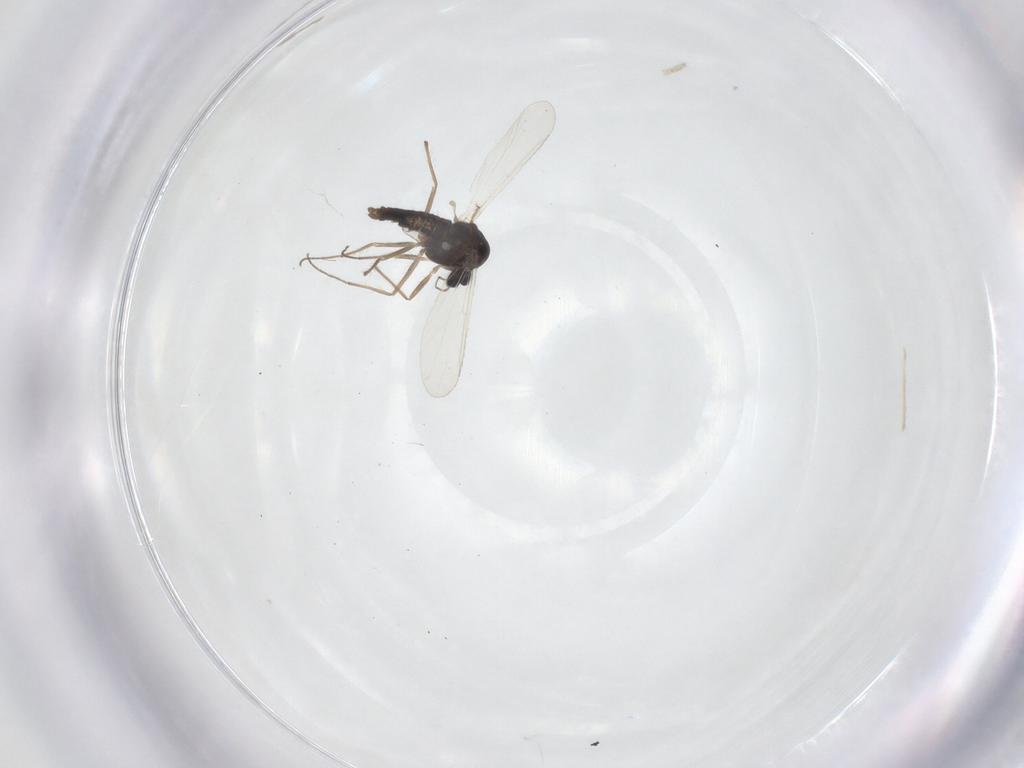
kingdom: Animalia
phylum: Arthropoda
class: Insecta
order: Diptera
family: Chironomidae
